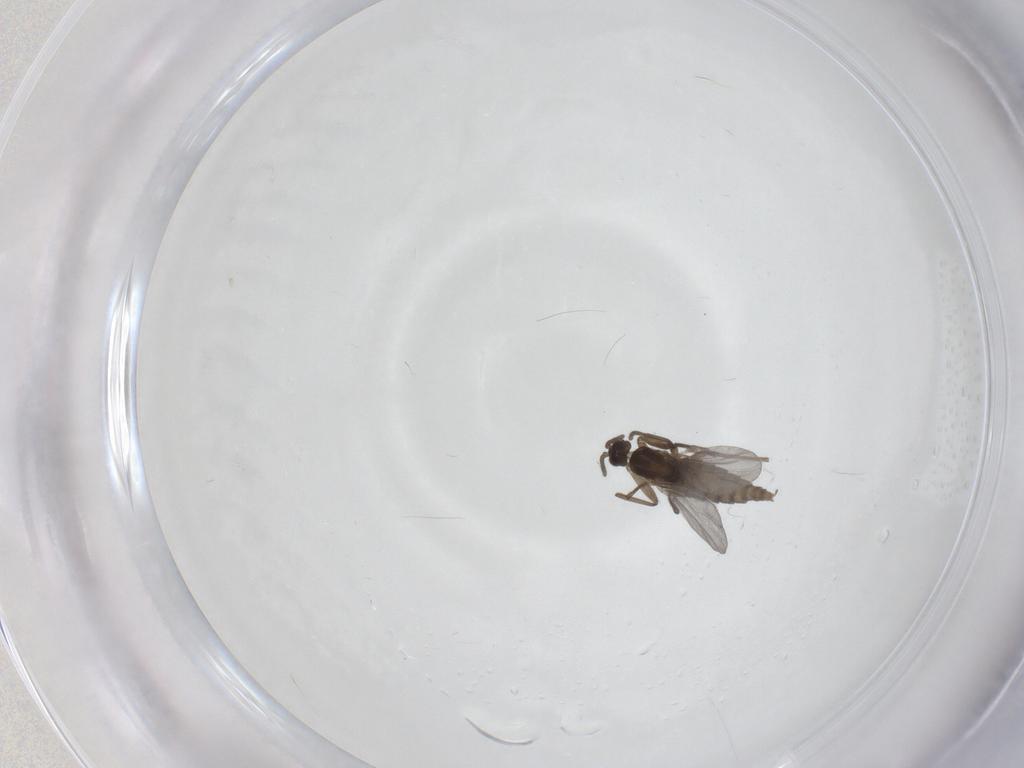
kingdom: Animalia
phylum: Arthropoda
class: Insecta
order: Diptera
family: Cecidomyiidae
